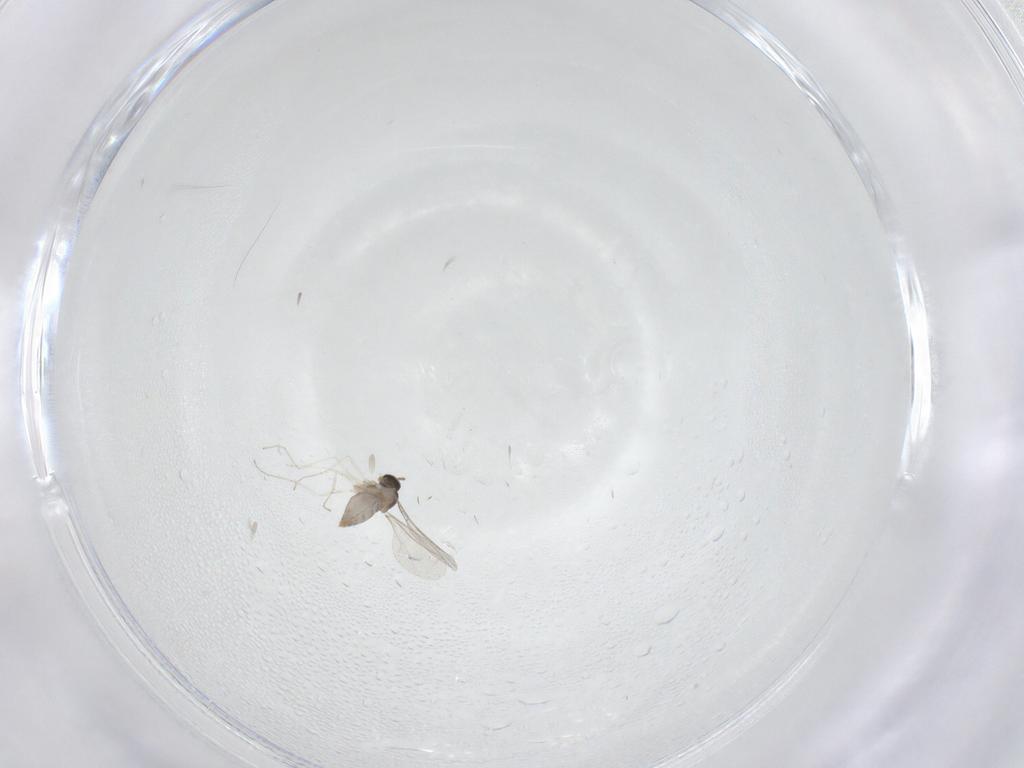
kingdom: Animalia
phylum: Arthropoda
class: Insecta
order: Diptera
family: Cecidomyiidae
